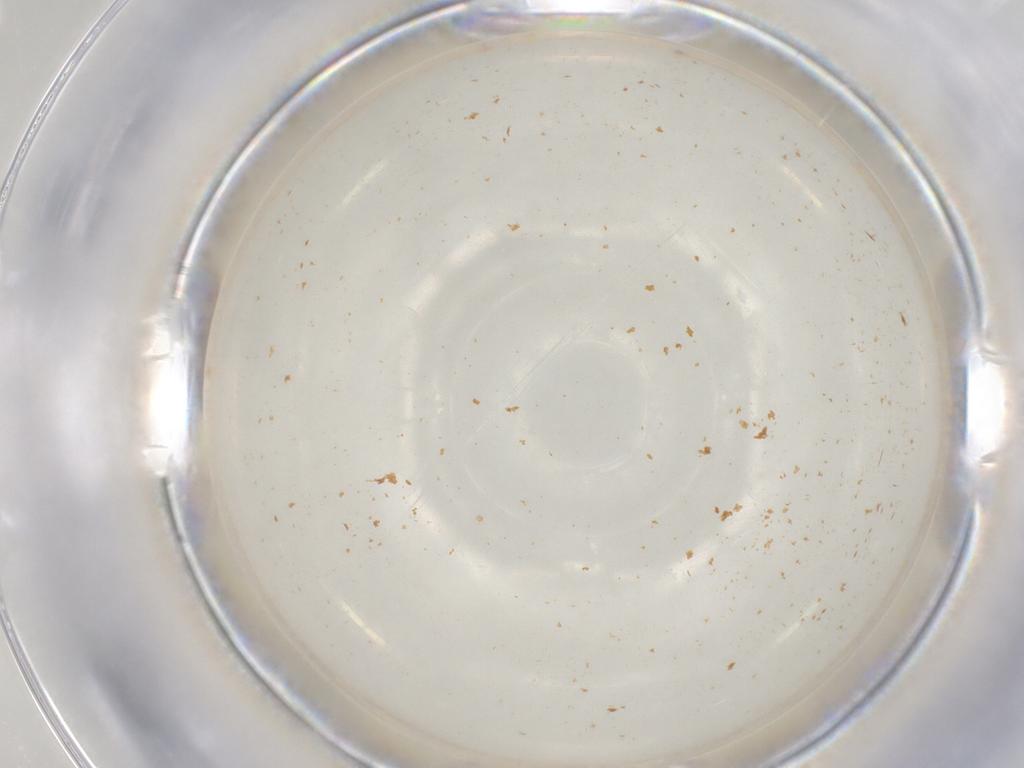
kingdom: Animalia
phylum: Arthropoda
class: Insecta
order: Diptera
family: Chironomidae
